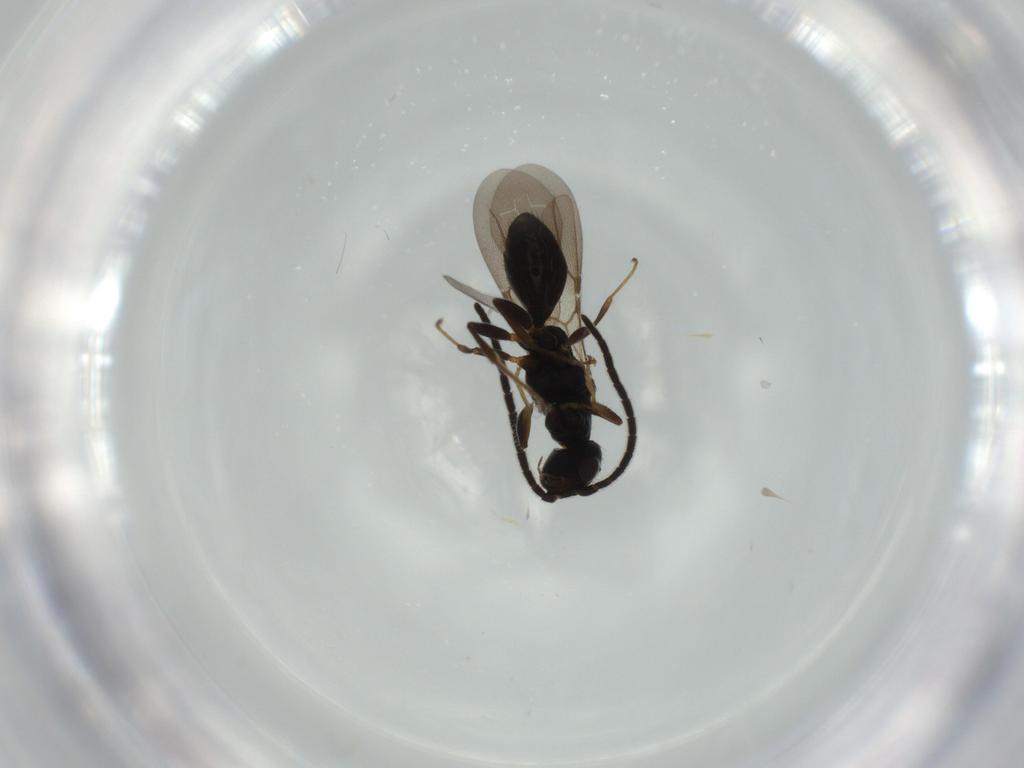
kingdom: Animalia
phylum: Arthropoda
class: Insecta
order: Hymenoptera
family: Bethylidae
